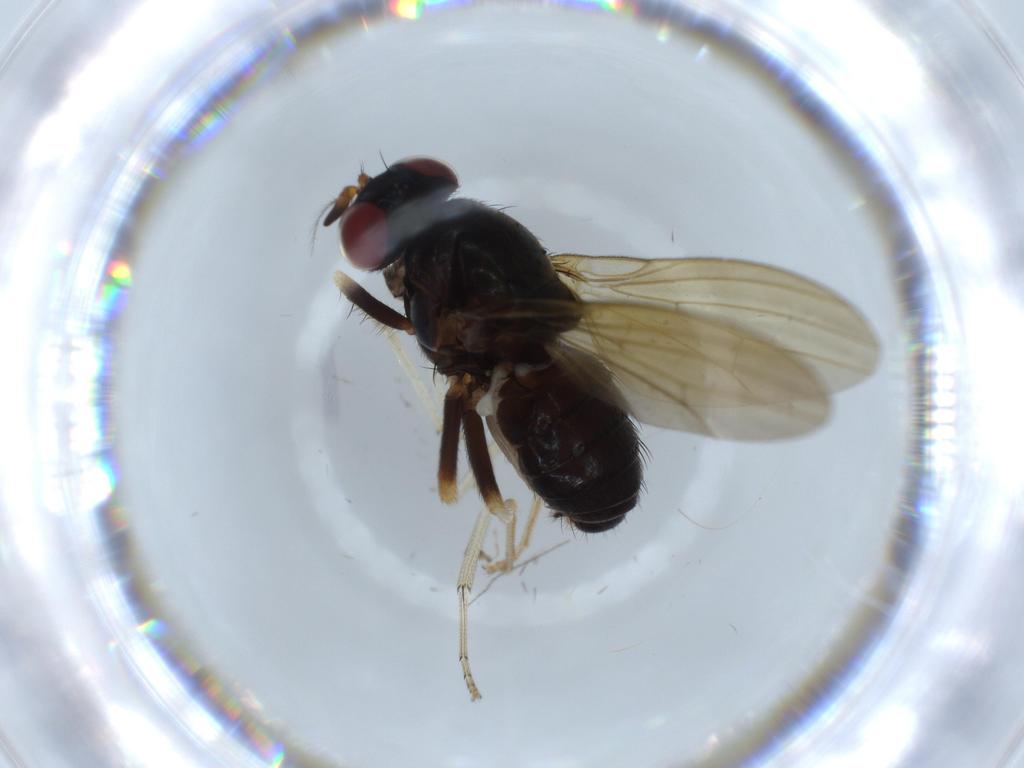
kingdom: Animalia
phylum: Arthropoda
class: Insecta
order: Diptera
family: Lauxaniidae
